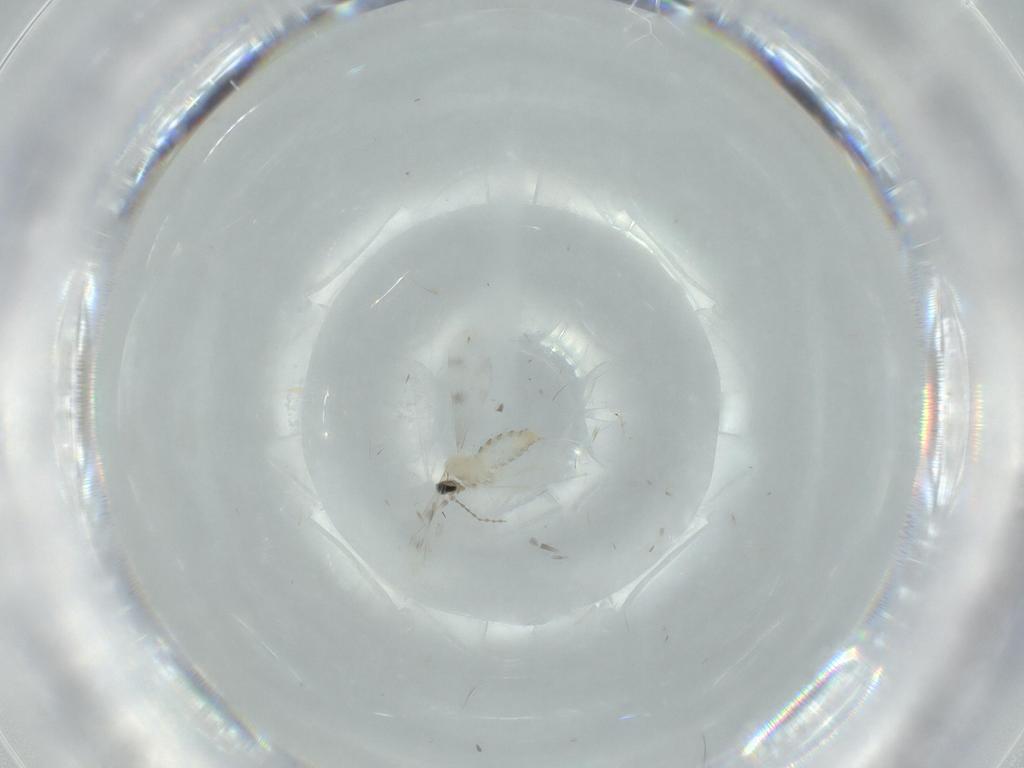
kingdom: Animalia
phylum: Arthropoda
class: Insecta
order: Diptera
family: Cecidomyiidae
